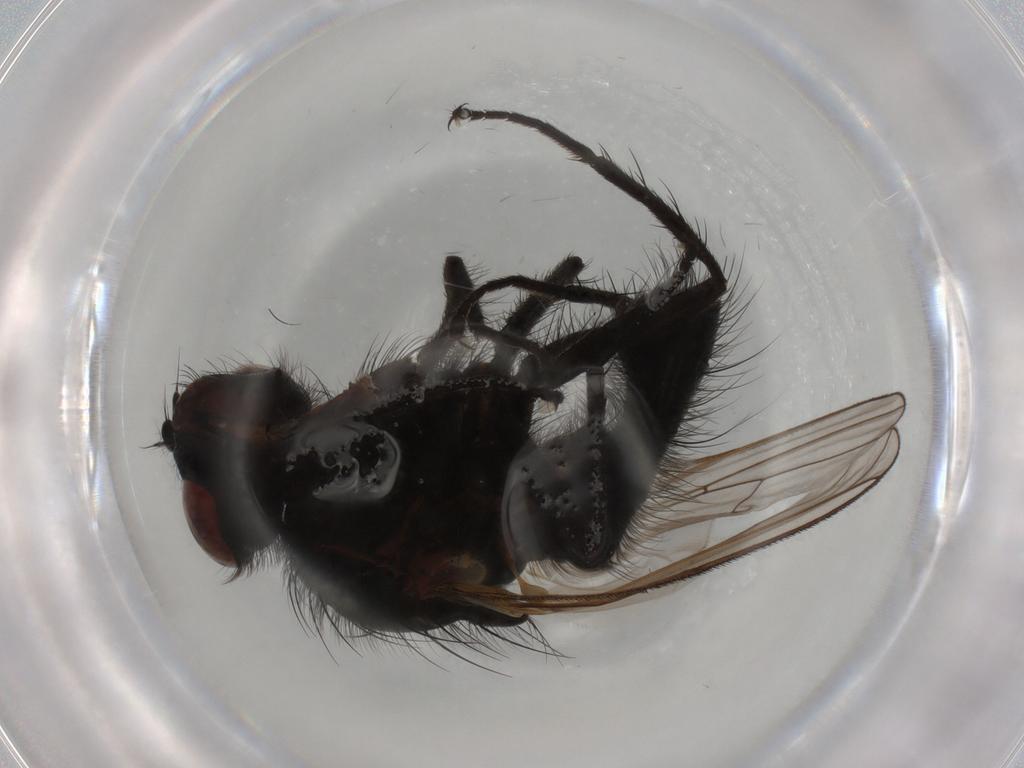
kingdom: Animalia
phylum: Arthropoda
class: Insecta
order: Diptera
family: Anthomyiidae
